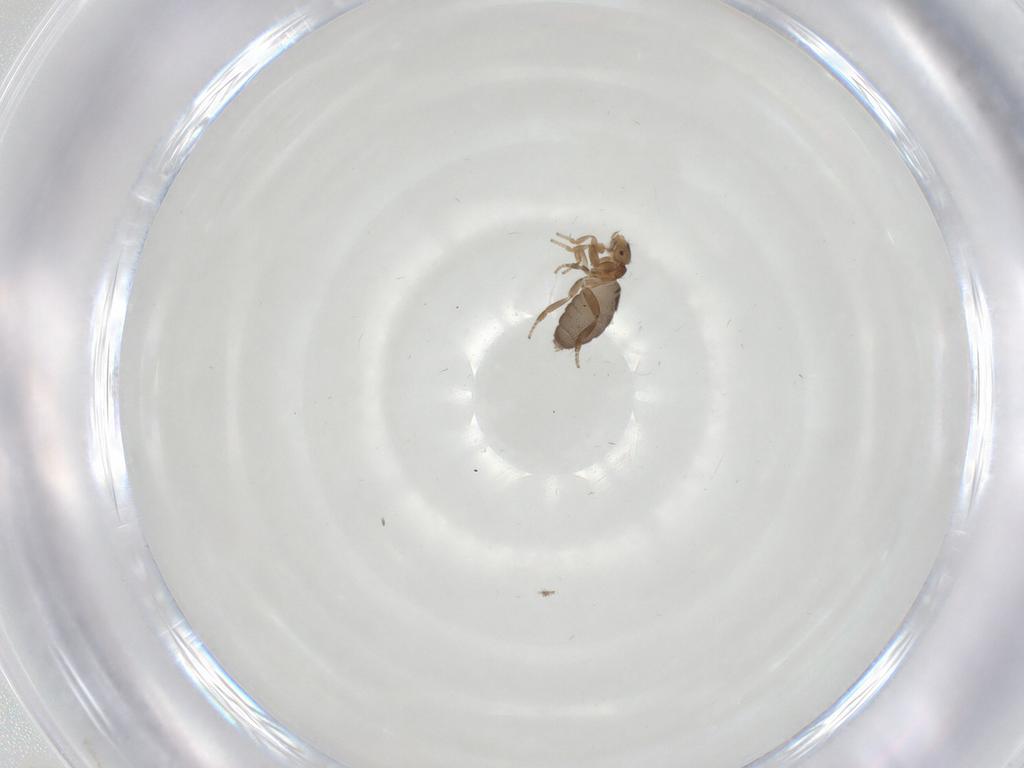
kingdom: Animalia
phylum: Arthropoda
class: Insecta
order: Diptera
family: Phoridae
